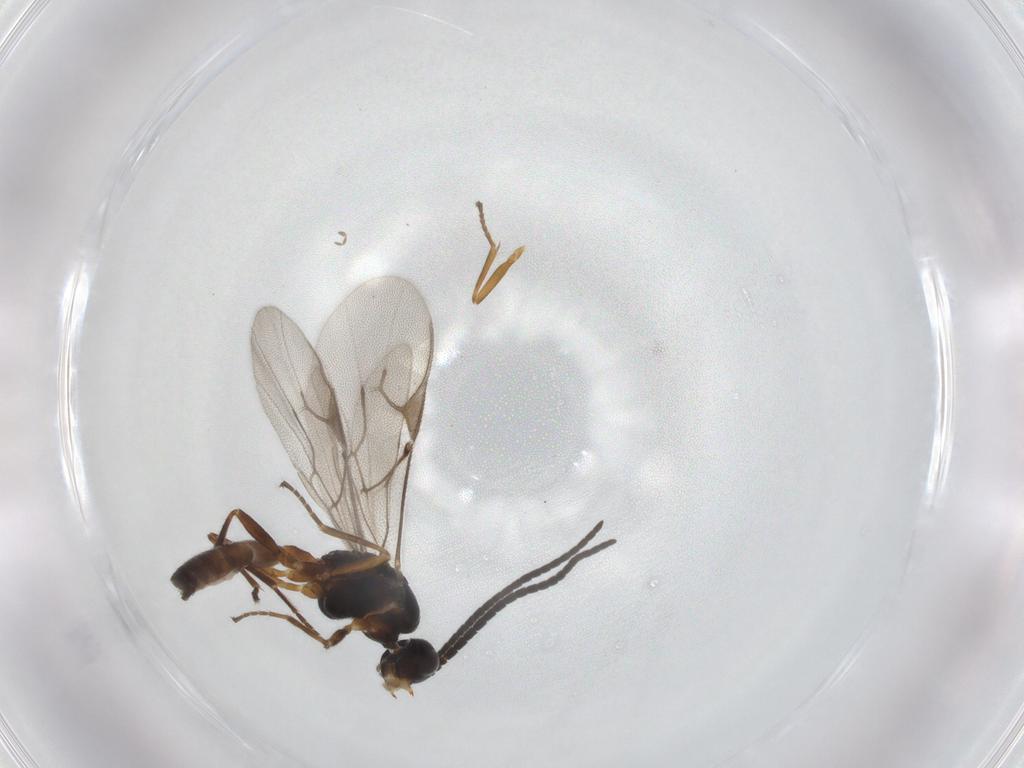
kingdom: Animalia
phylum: Arthropoda
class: Insecta
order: Hymenoptera
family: Braconidae
